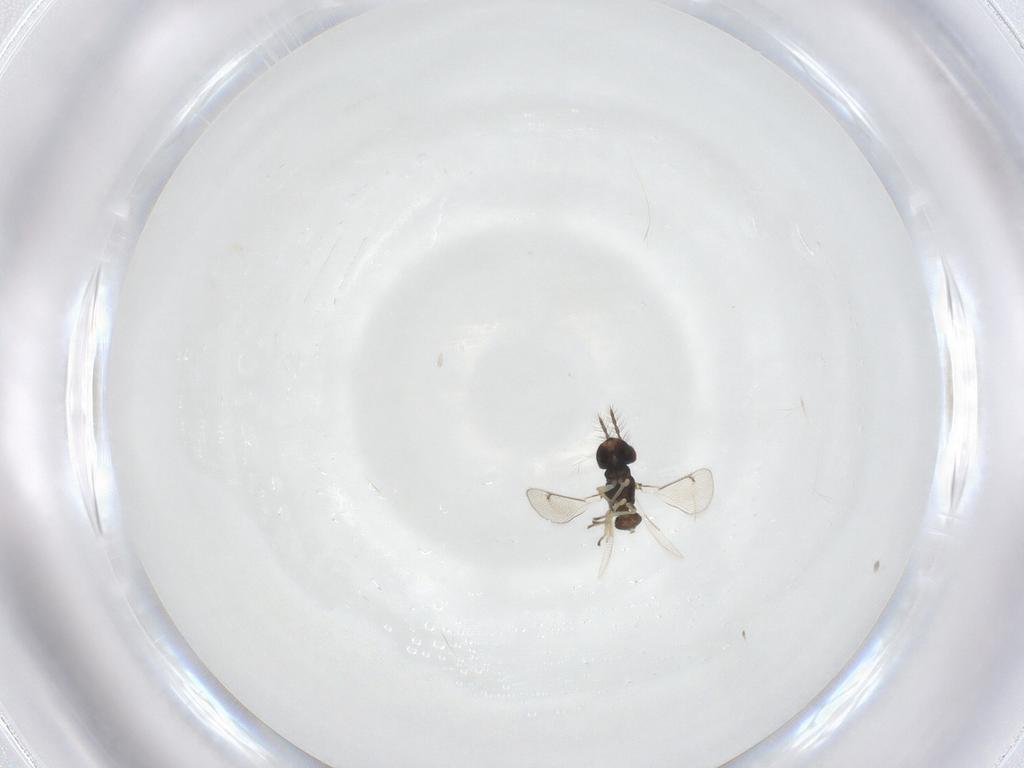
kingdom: Animalia
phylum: Arthropoda
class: Insecta
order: Hymenoptera
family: Eulophidae
